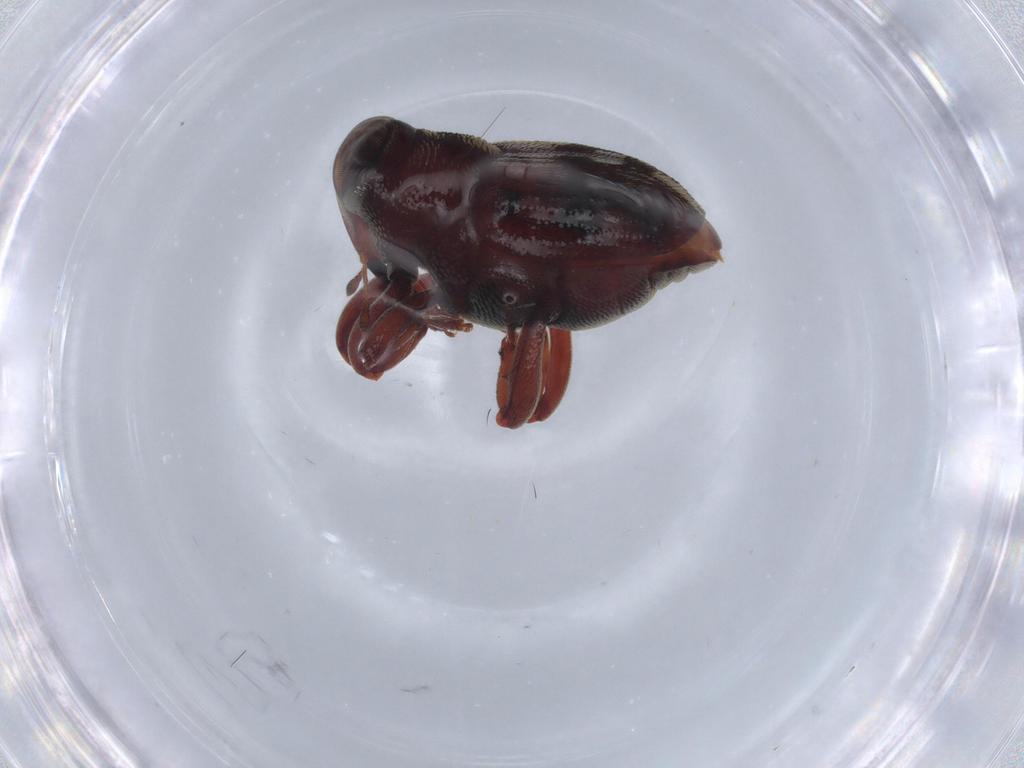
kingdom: Animalia
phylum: Arthropoda
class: Insecta
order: Coleoptera
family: Curculionidae
